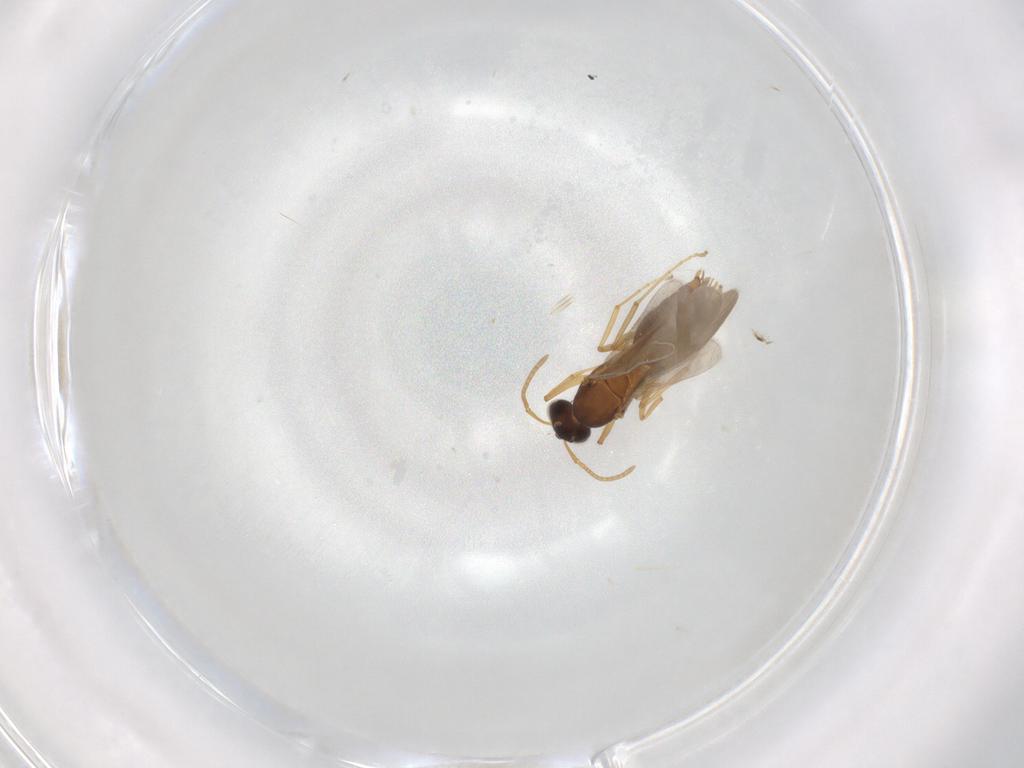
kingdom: Animalia
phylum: Arthropoda
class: Insecta
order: Hymenoptera
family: Formicidae
